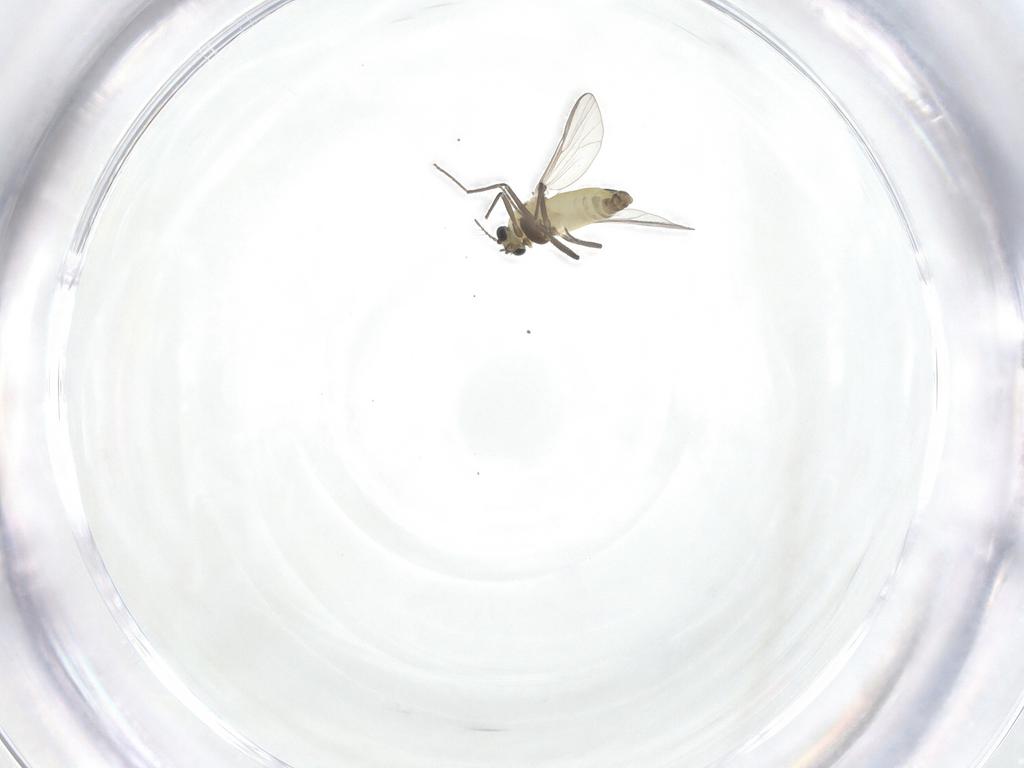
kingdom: Animalia
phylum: Arthropoda
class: Insecta
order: Diptera
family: Chironomidae
